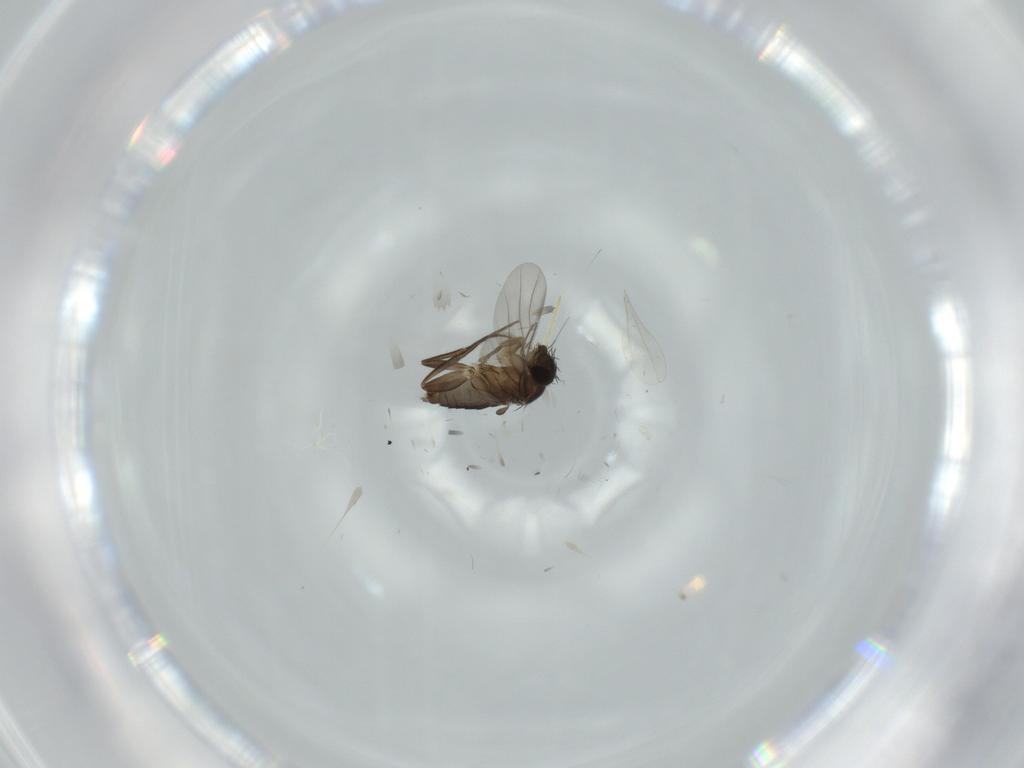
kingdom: Animalia
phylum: Arthropoda
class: Insecta
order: Diptera
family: Phoridae
